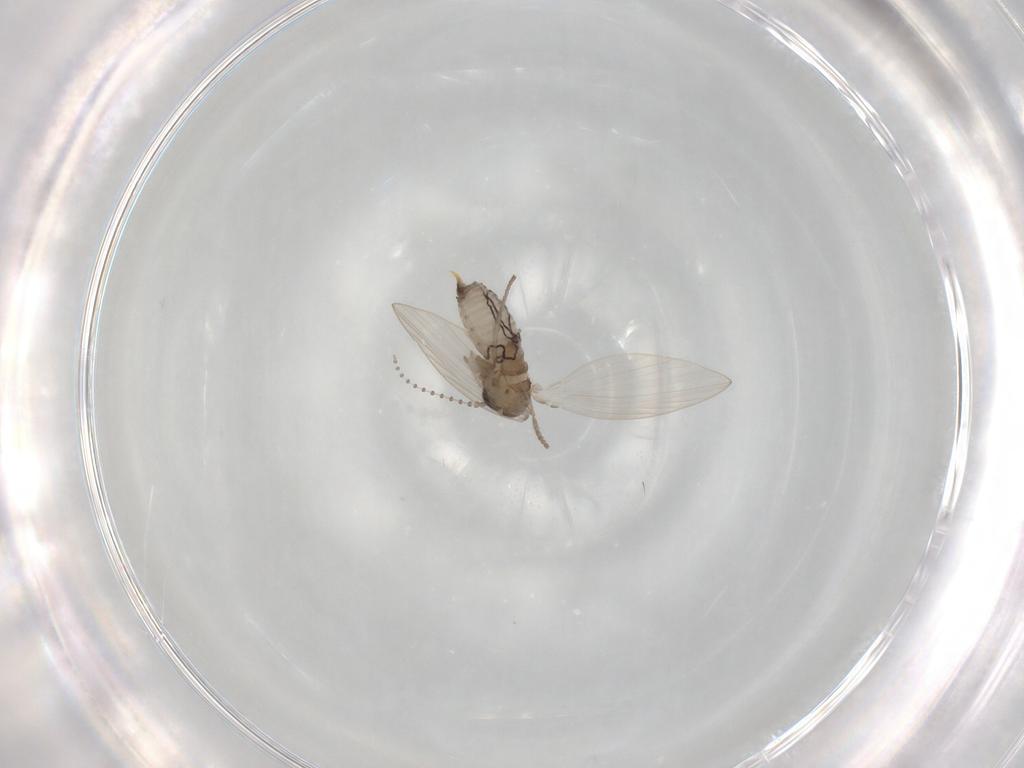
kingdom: Animalia
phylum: Arthropoda
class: Insecta
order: Diptera
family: Psychodidae
